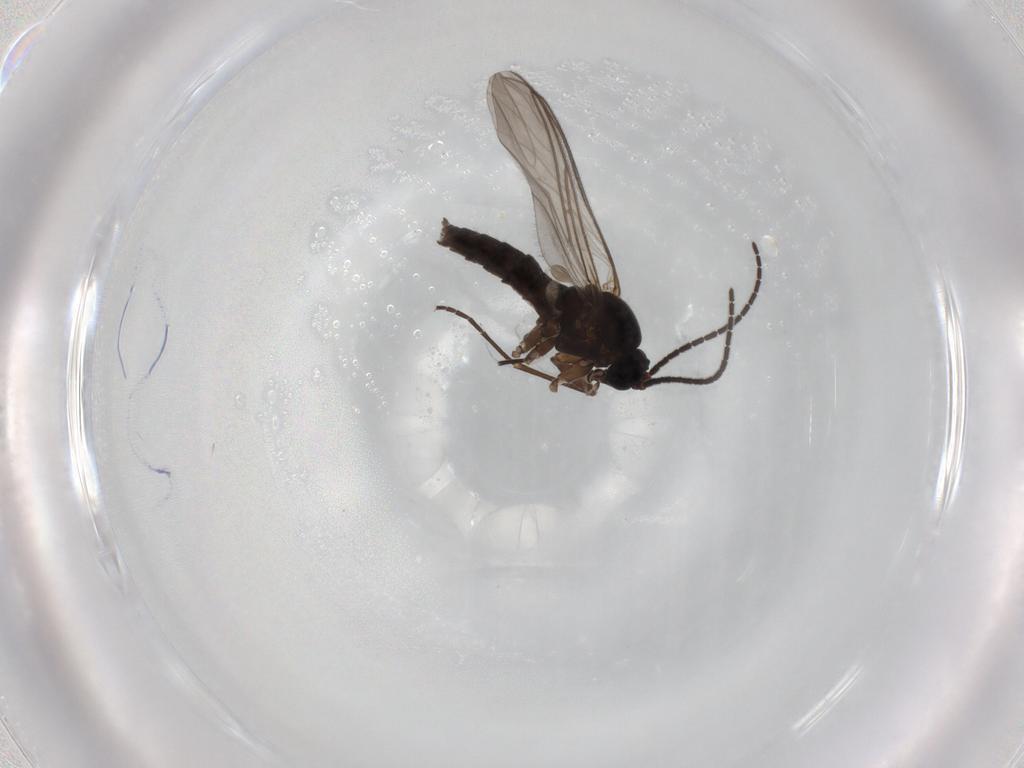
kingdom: Animalia
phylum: Arthropoda
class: Insecta
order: Diptera
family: Sciaridae
